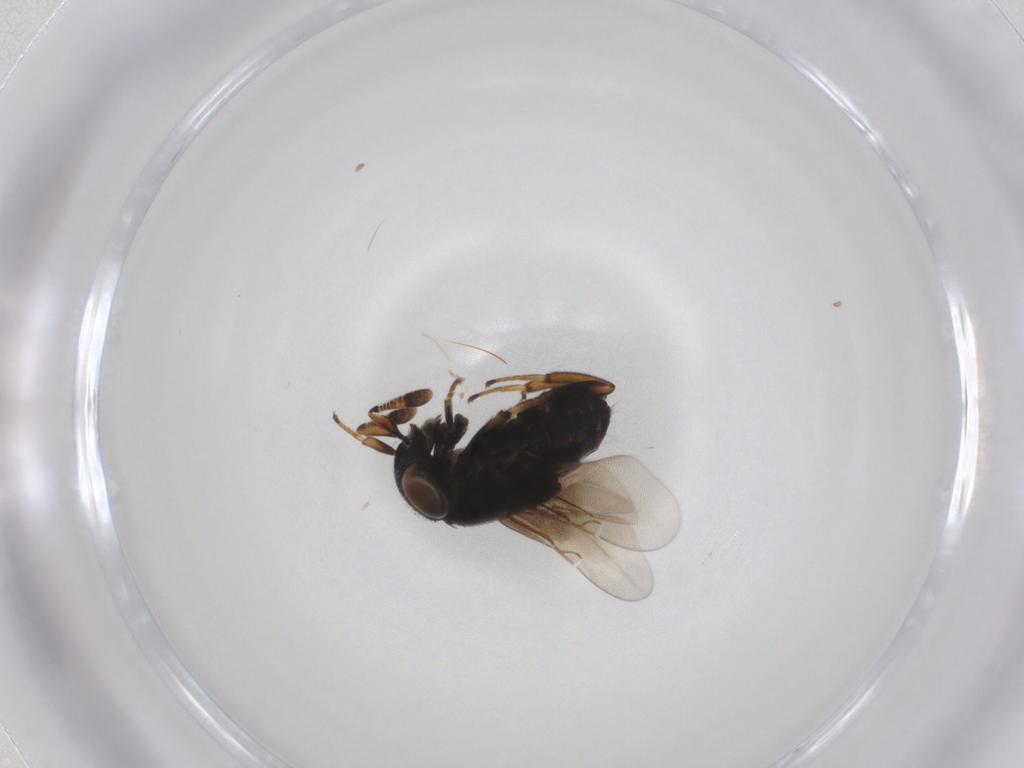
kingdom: Animalia
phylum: Arthropoda
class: Insecta
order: Hymenoptera
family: Encyrtidae
